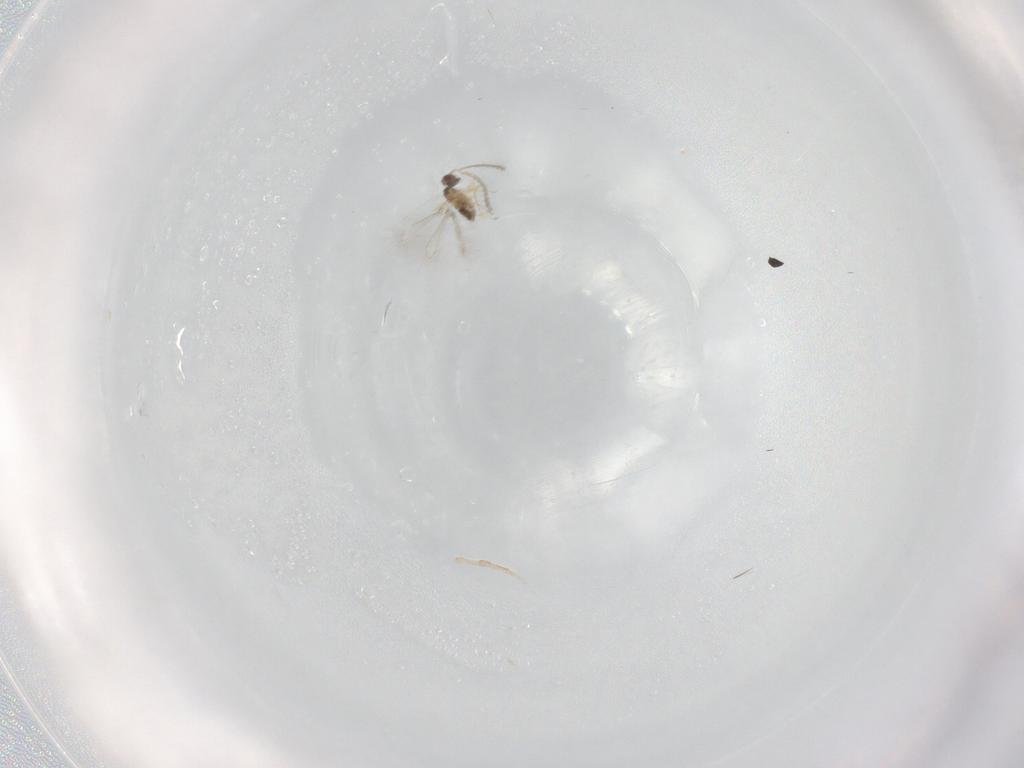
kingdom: Animalia
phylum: Arthropoda
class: Insecta
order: Hymenoptera
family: Mymaridae
